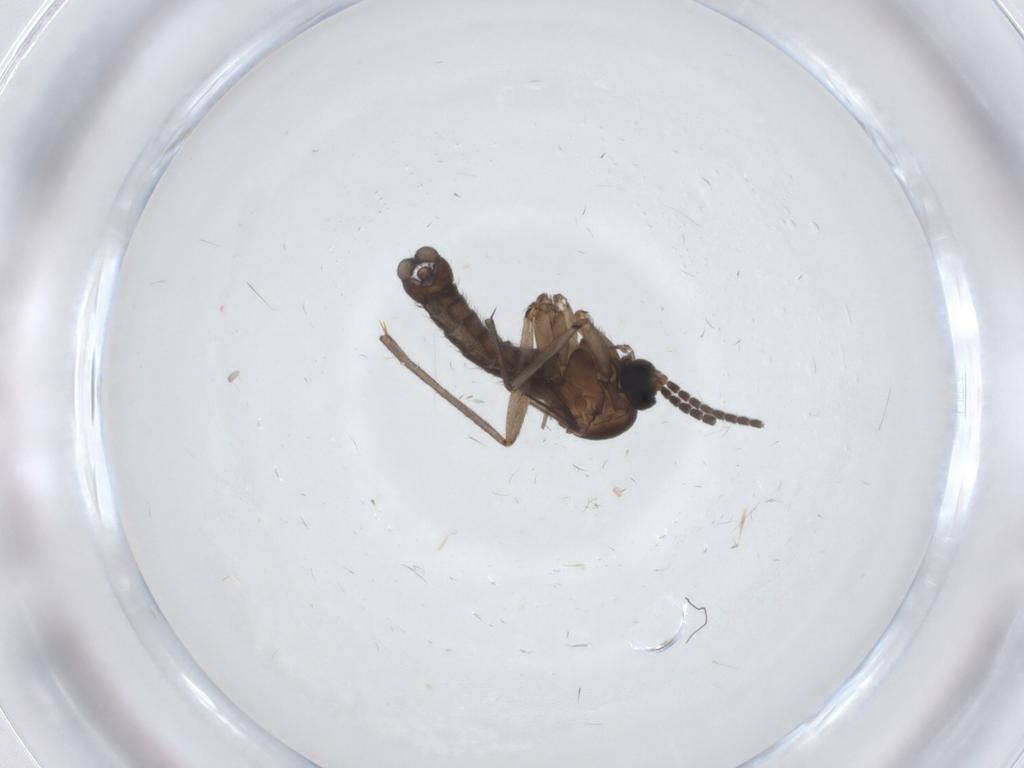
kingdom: Animalia
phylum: Arthropoda
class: Insecta
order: Diptera
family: Sciaridae
